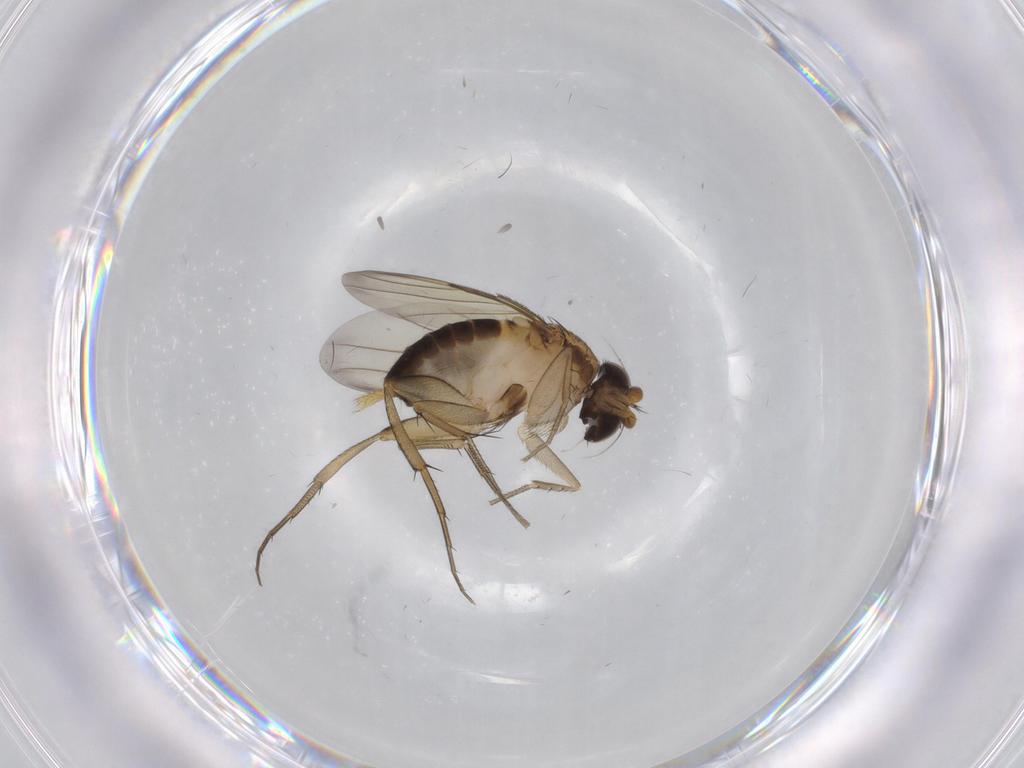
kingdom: Animalia
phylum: Arthropoda
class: Insecta
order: Diptera
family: Phoridae
